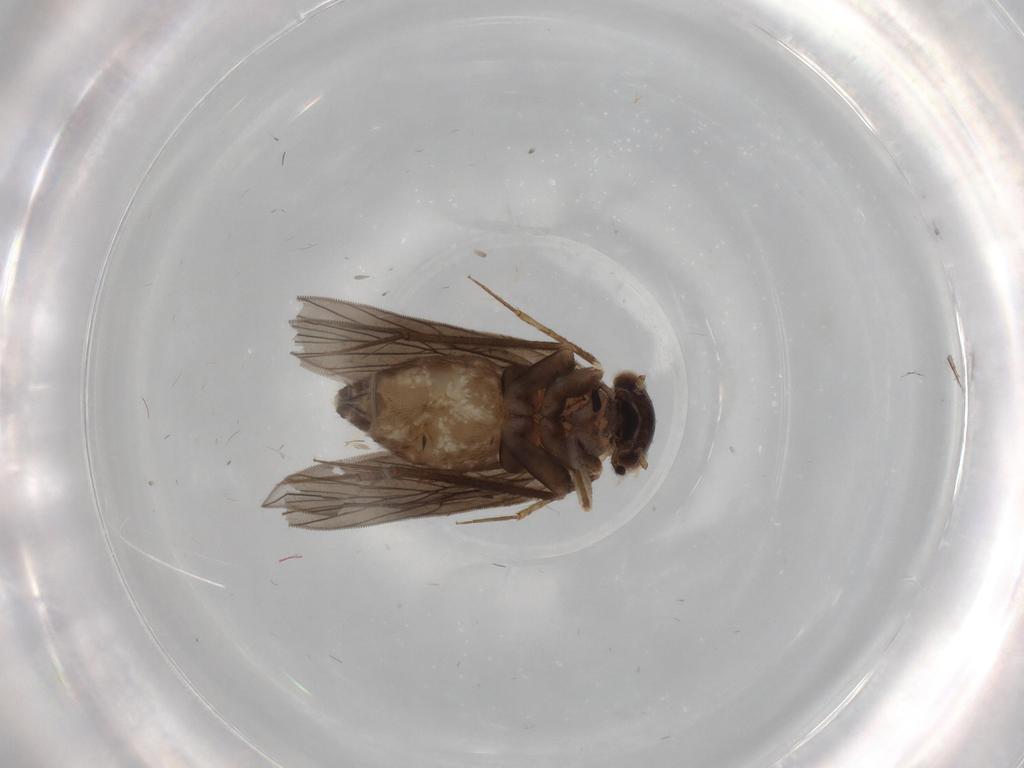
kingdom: Animalia
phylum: Arthropoda
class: Insecta
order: Psocodea
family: Lepidopsocidae
